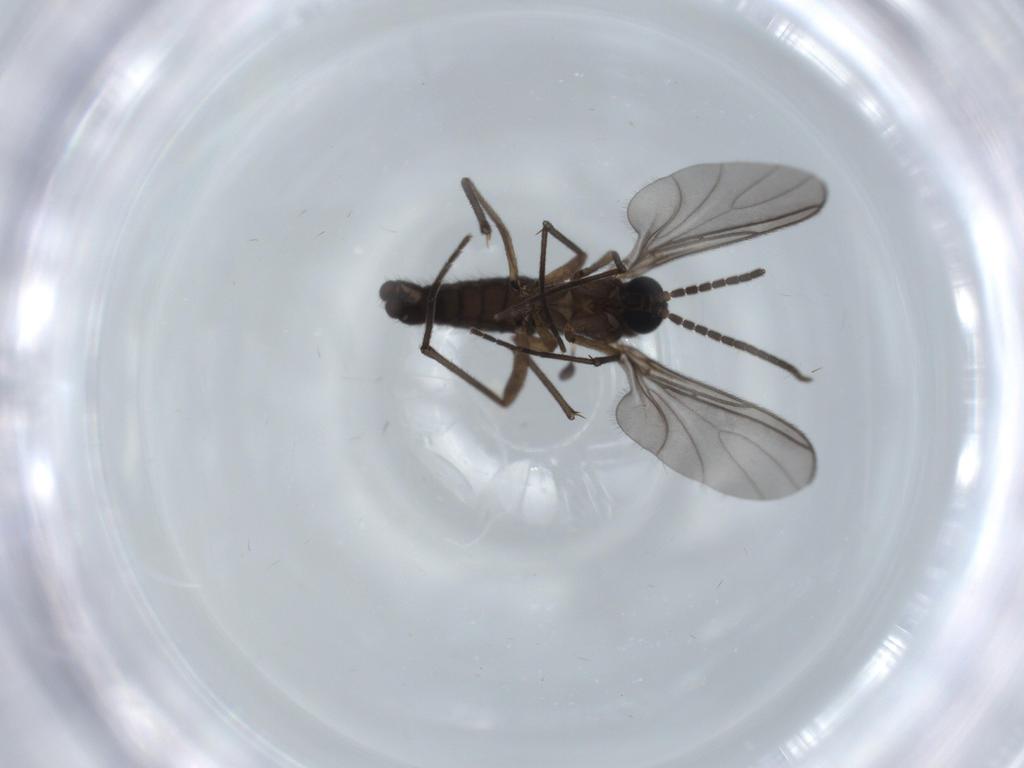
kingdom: Animalia
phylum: Arthropoda
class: Insecta
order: Diptera
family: Sciaridae
